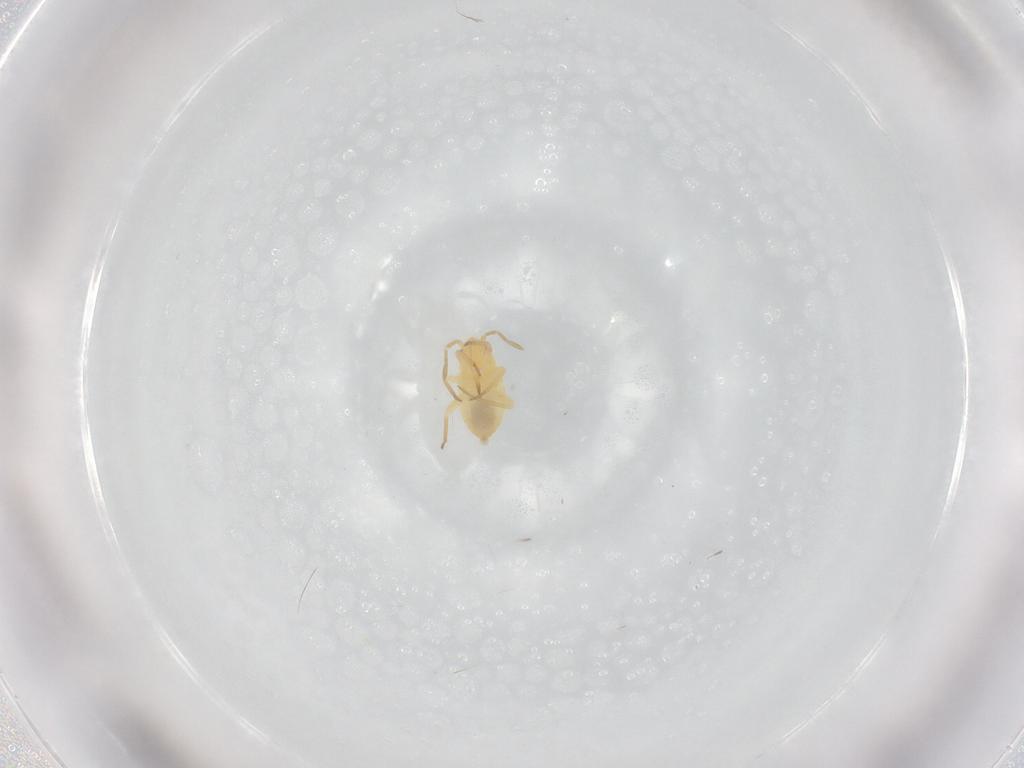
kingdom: Animalia
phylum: Arthropoda
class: Insecta
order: Hemiptera
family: Miridae
